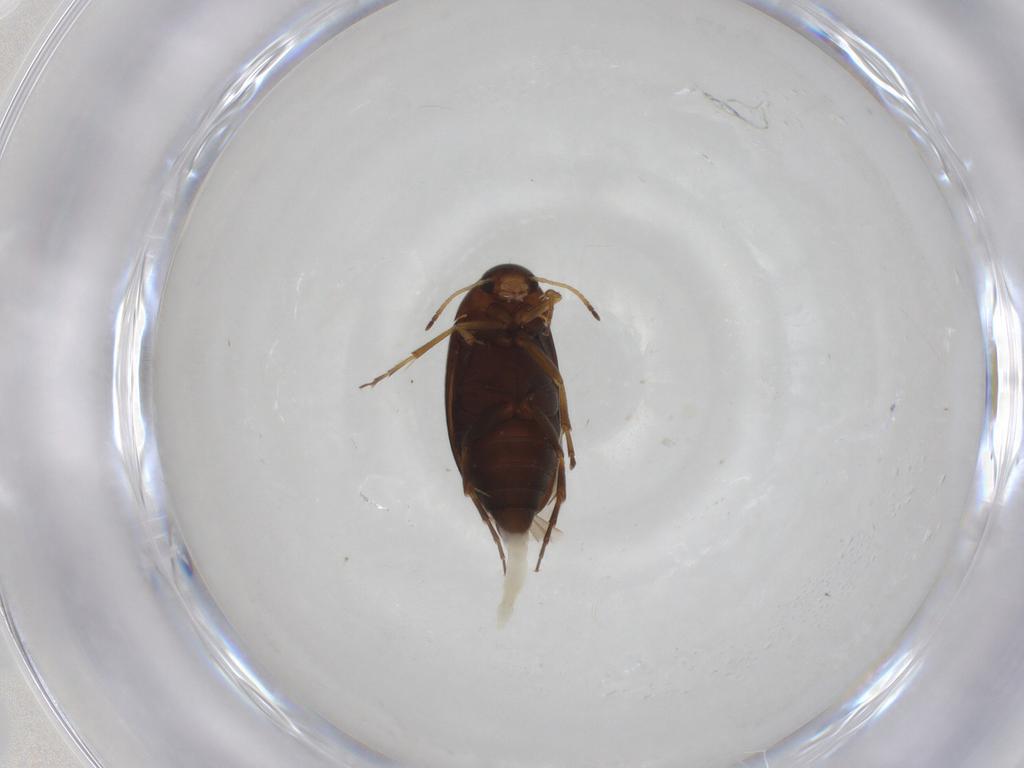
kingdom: Animalia
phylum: Arthropoda
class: Insecta
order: Coleoptera
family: Scraptiidae
